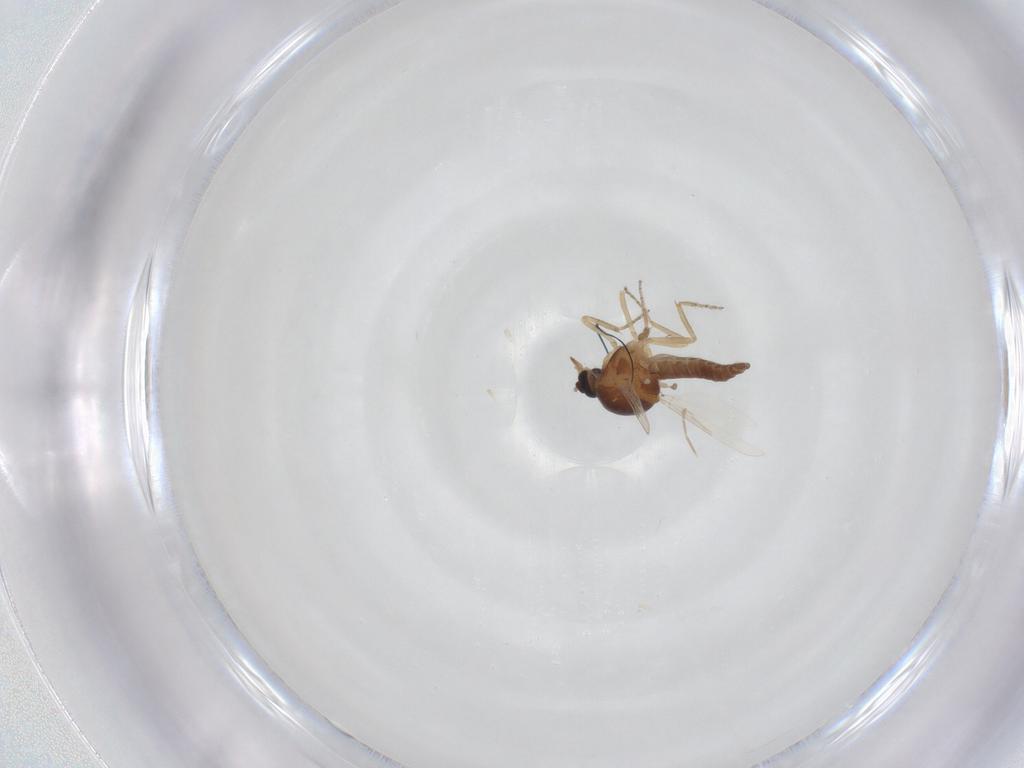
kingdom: Animalia
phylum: Arthropoda
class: Insecta
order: Diptera
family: Ceratopogonidae
